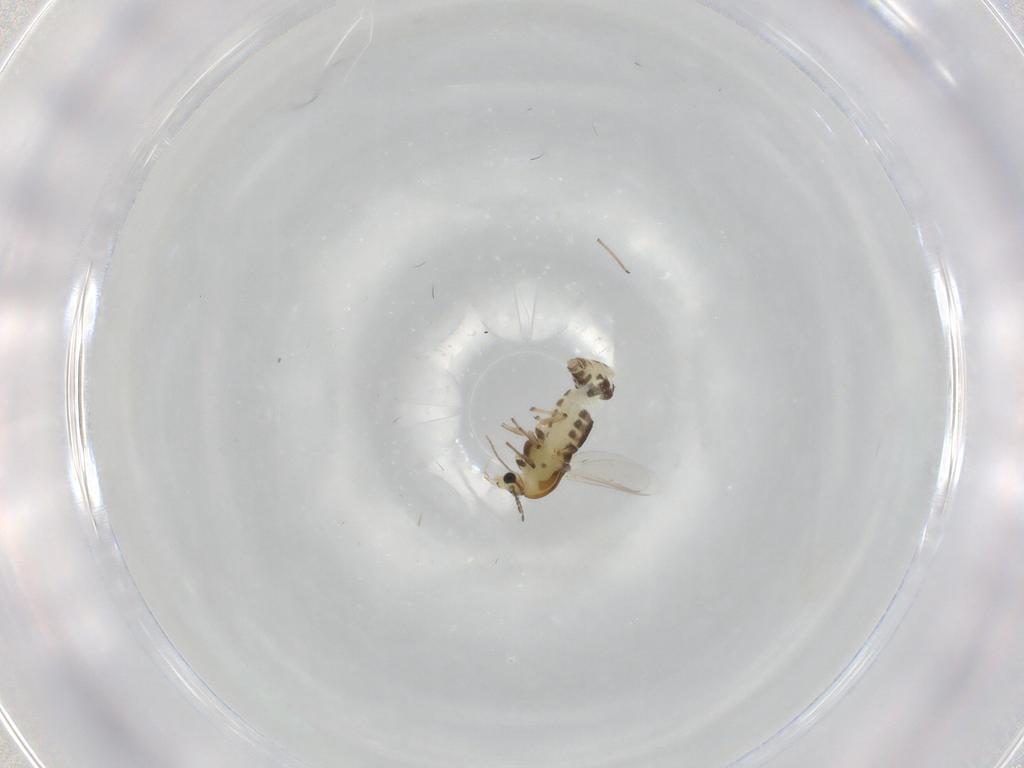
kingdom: Animalia
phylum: Arthropoda
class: Insecta
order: Diptera
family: Chironomidae
